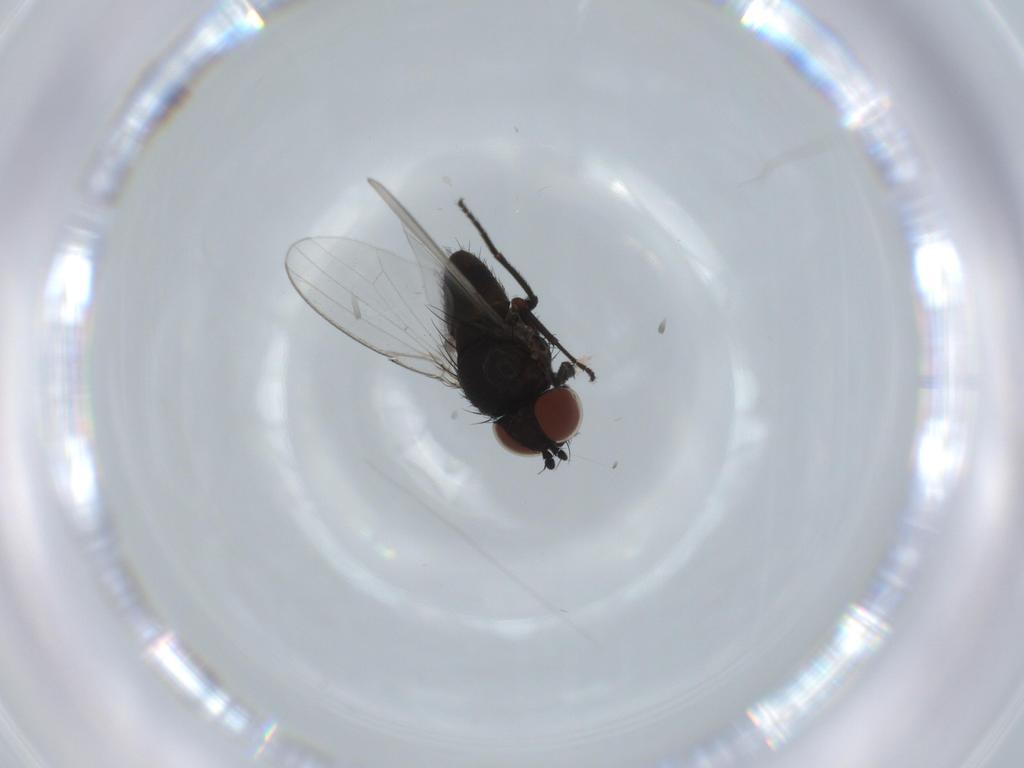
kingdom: Animalia
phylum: Arthropoda
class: Insecta
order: Diptera
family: Milichiidae
